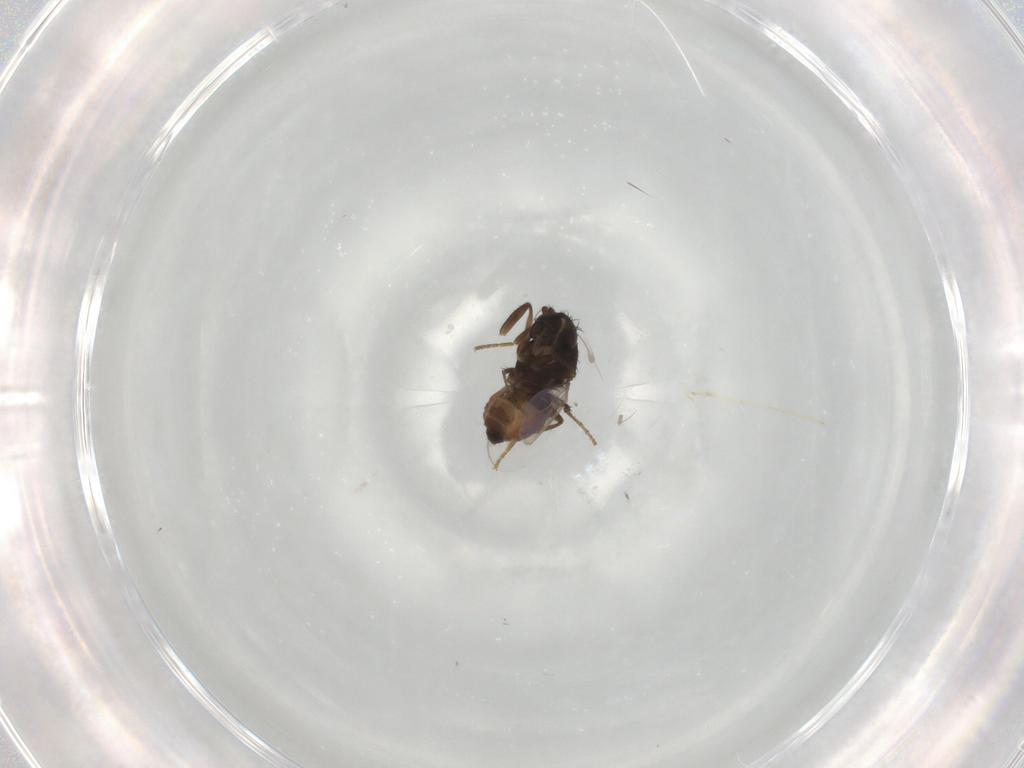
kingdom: Animalia
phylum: Arthropoda
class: Insecta
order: Diptera
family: Sphaeroceridae
